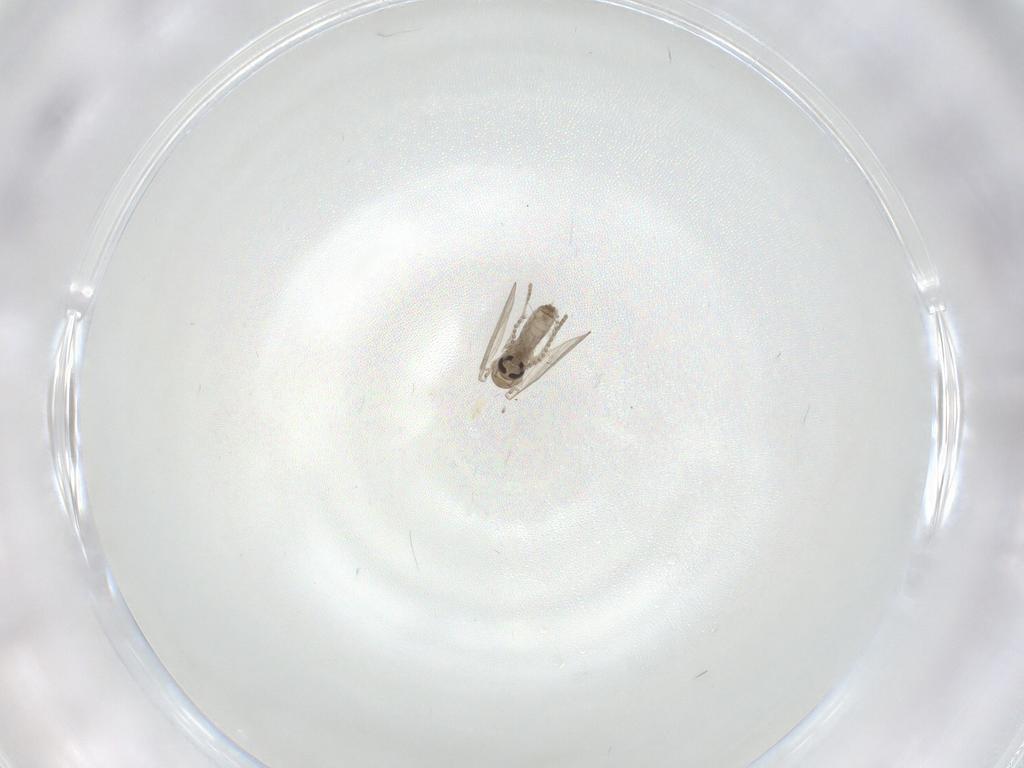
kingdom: Animalia
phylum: Arthropoda
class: Insecta
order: Diptera
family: Psychodidae
